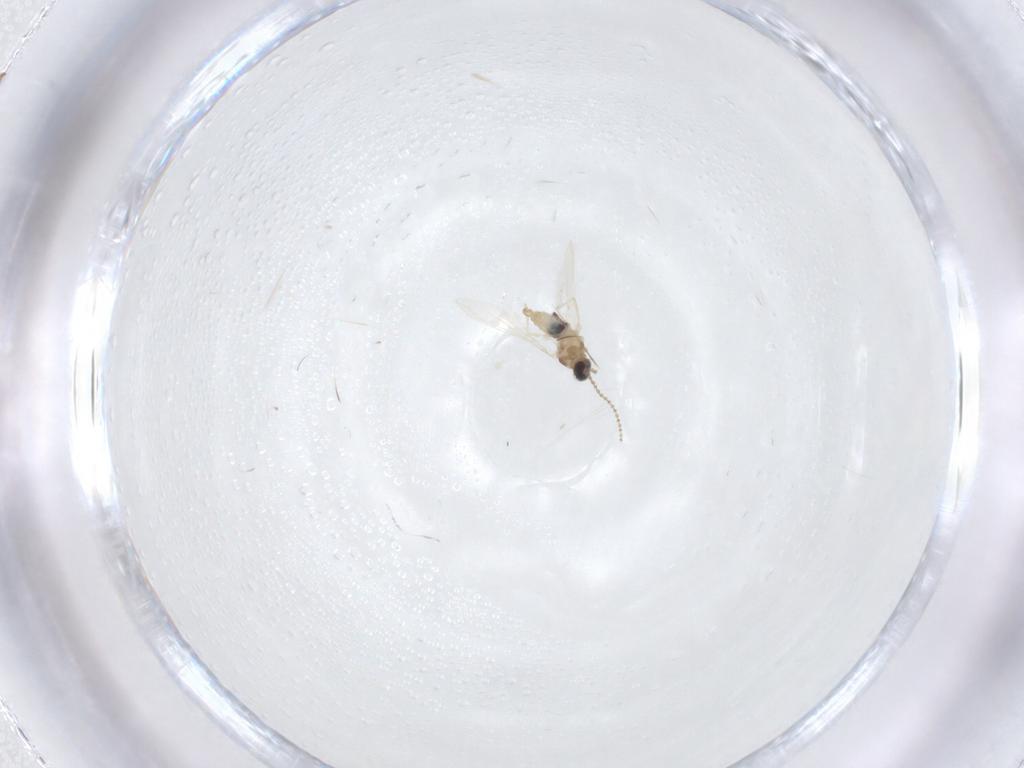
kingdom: Animalia
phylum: Arthropoda
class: Insecta
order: Diptera
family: Cecidomyiidae
